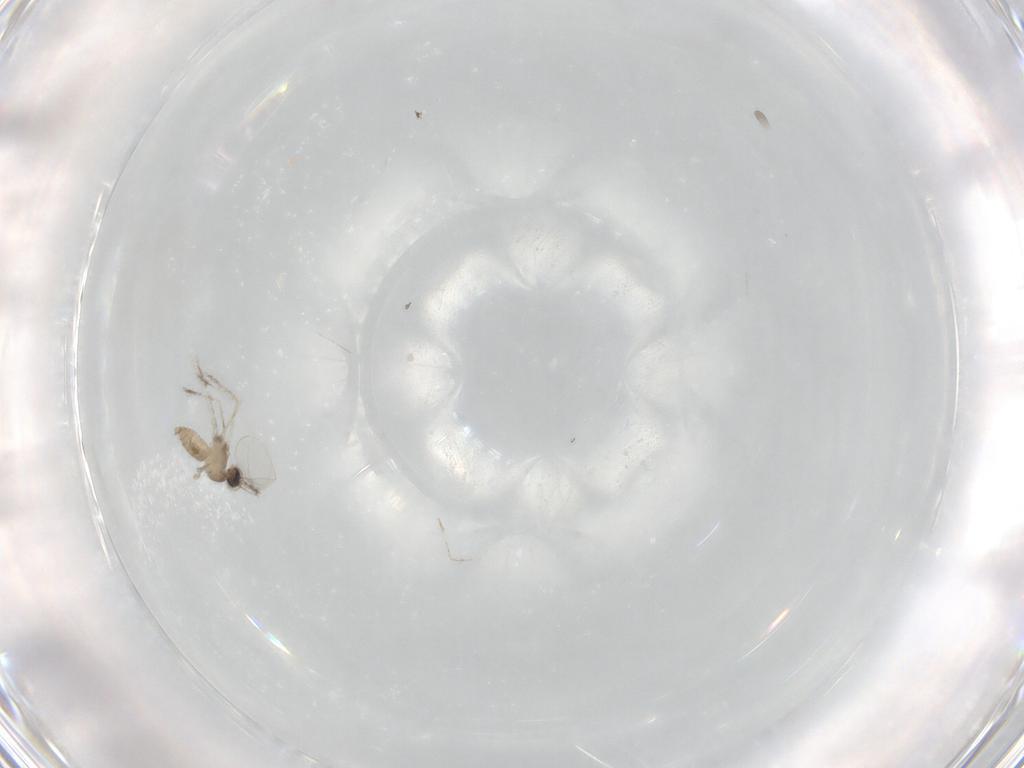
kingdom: Animalia
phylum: Arthropoda
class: Insecta
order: Diptera
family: Cecidomyiidae
